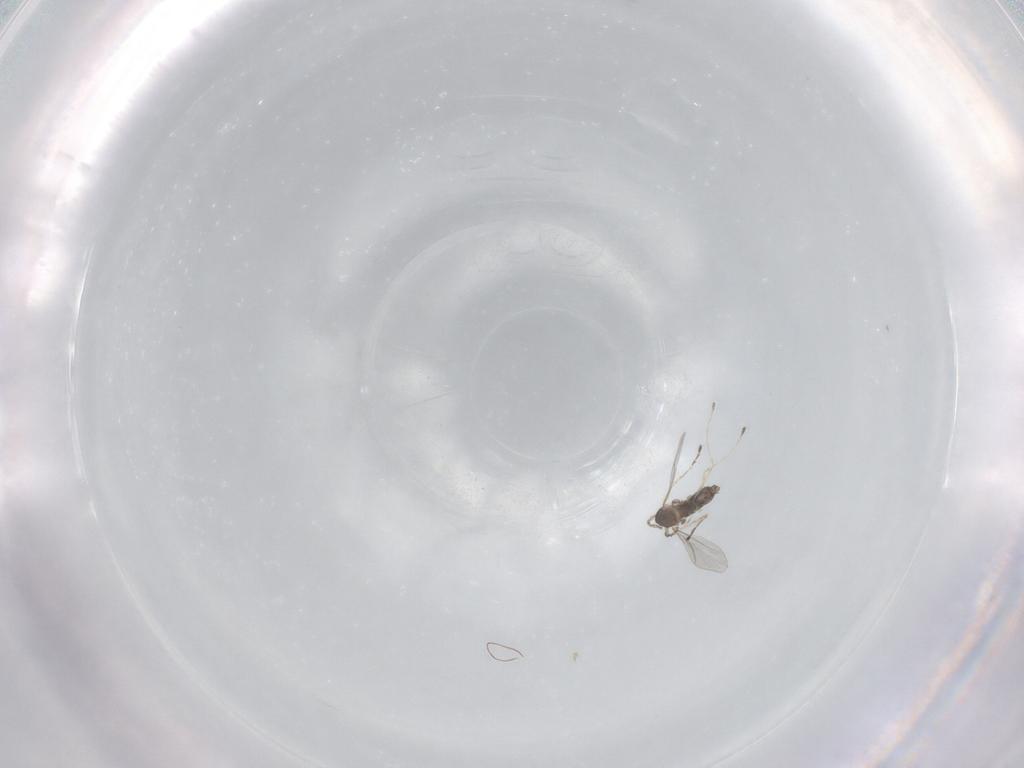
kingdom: Animalia
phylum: Arthropoda
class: Insecta
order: Diptera
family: Cecidomyiidae
